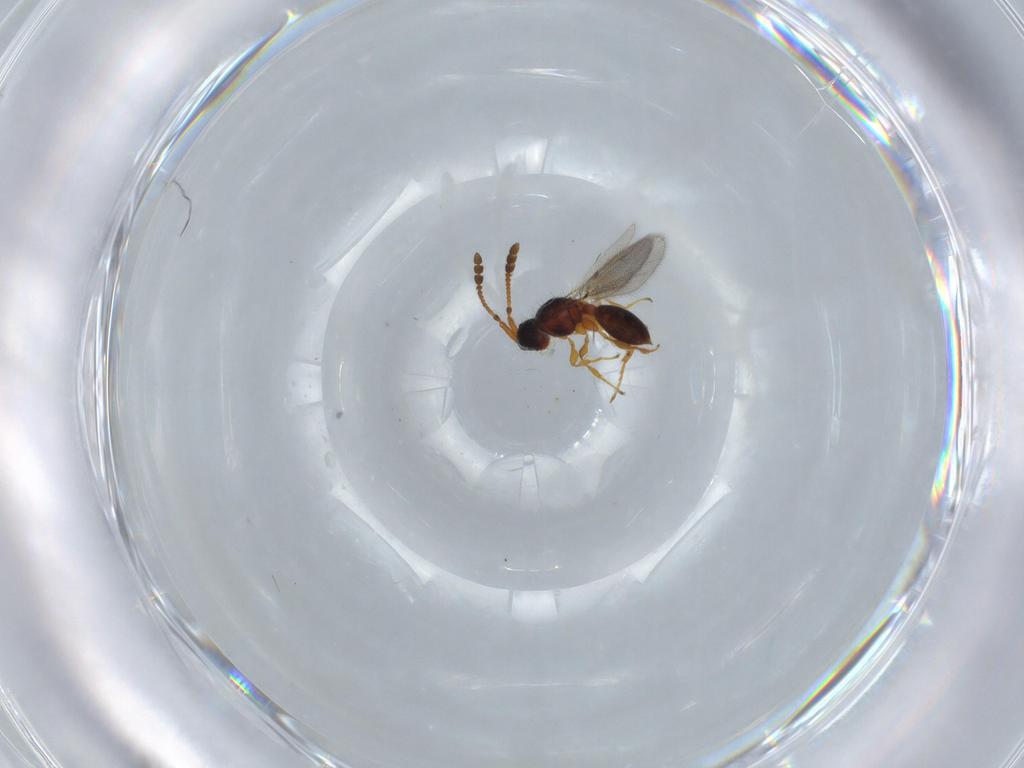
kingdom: Animalia
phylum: Arthropoda
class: Insecta
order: Hymenoptera
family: Diapriidae
